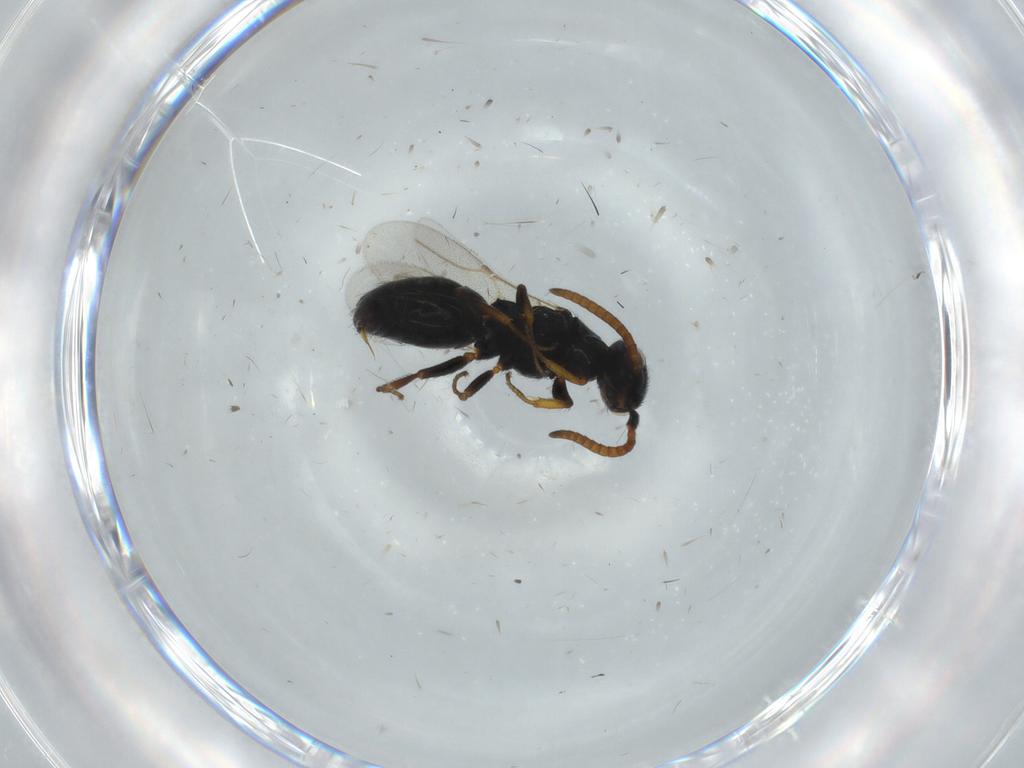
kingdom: Animalia
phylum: Arthropoda
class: Insecta
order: Hymenoptera
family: Bethylidae
